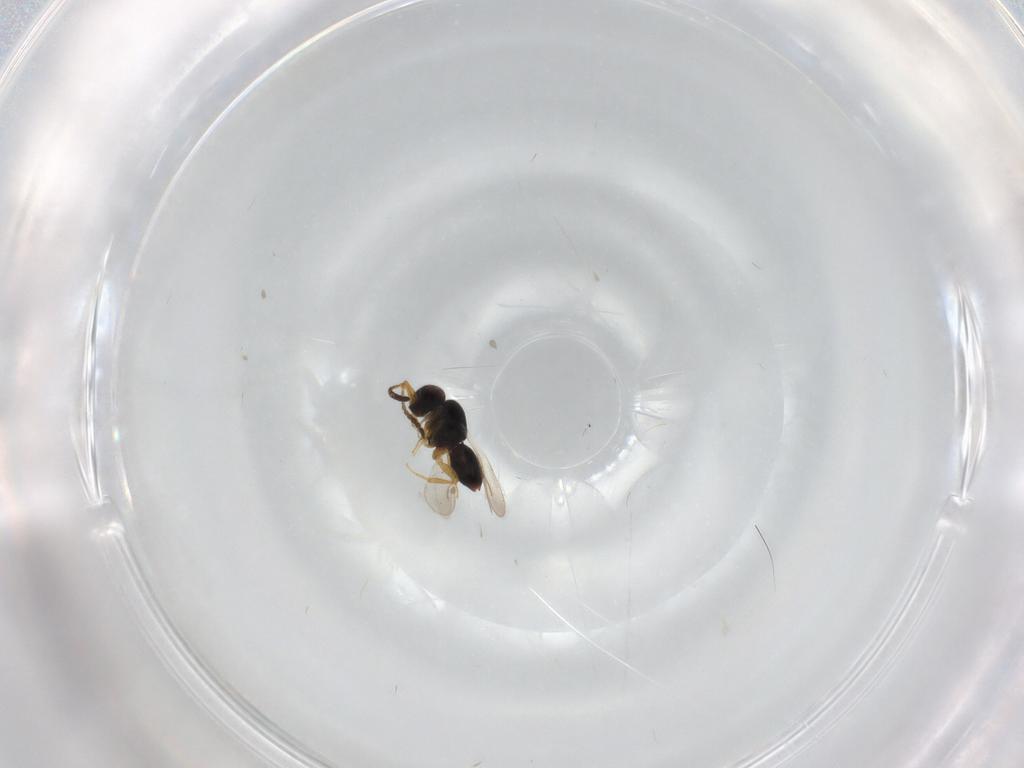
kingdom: Animalia
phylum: Arthropoda
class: Insecta
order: Hymenoptera
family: Ceraphronidae
